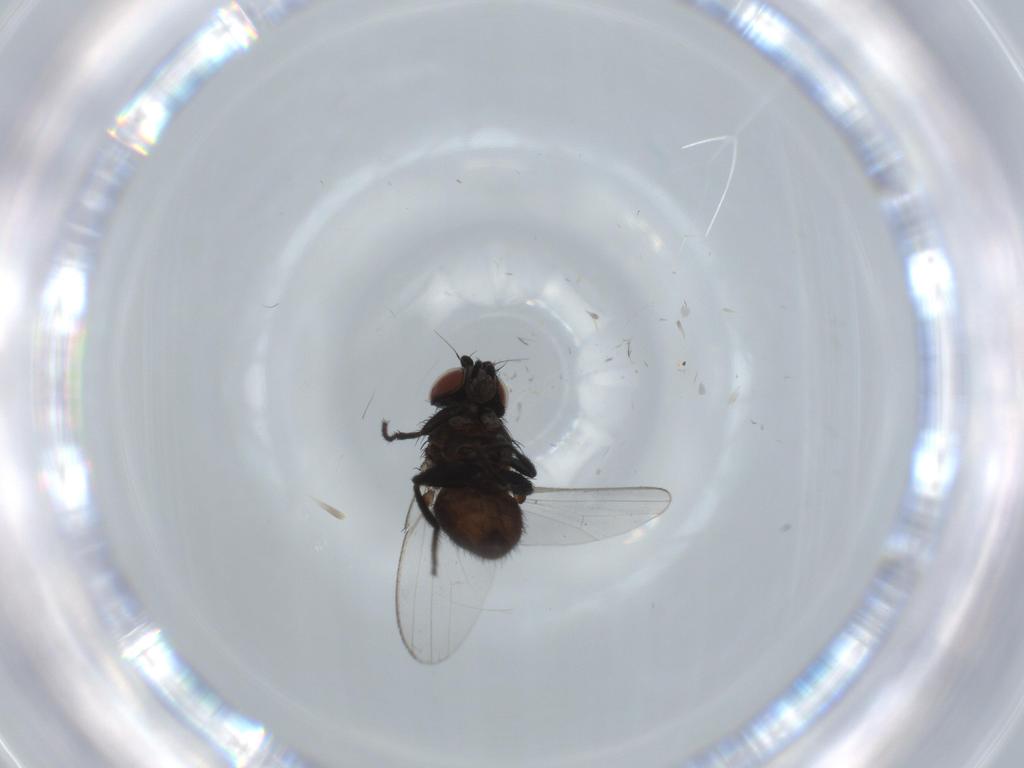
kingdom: Animalia
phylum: Arthropoda
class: Insecta
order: Diptera
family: Milichiidae
